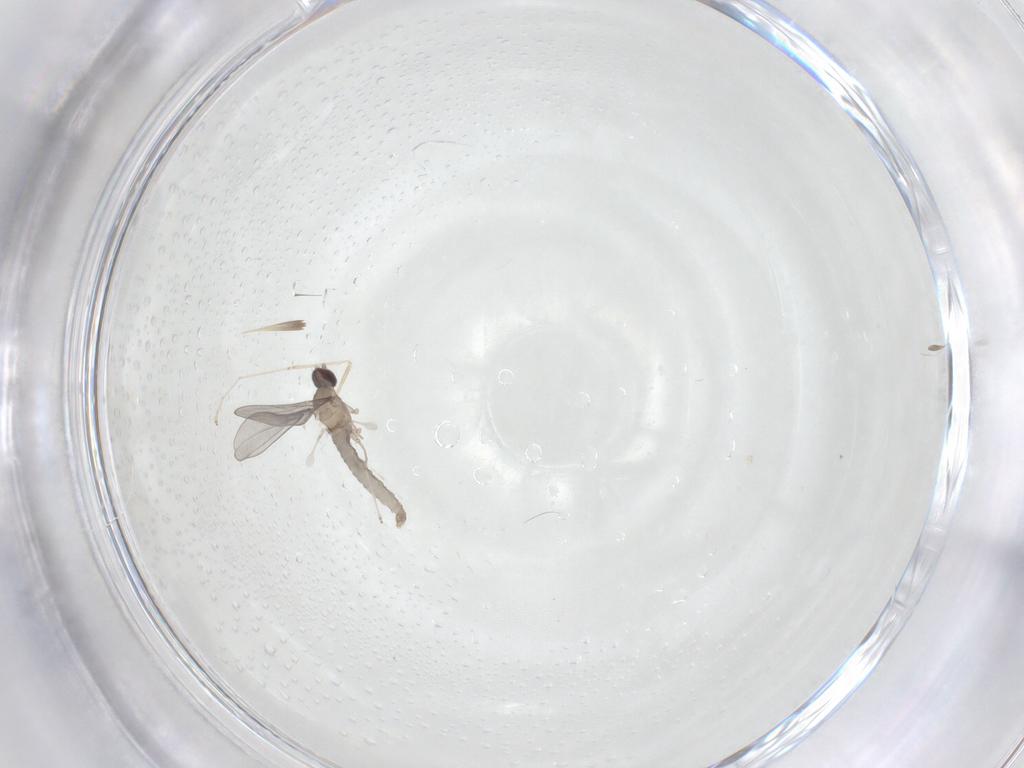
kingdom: Animalia
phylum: Arthropoda
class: Insecta
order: Diptera
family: Cecidomyiidae
